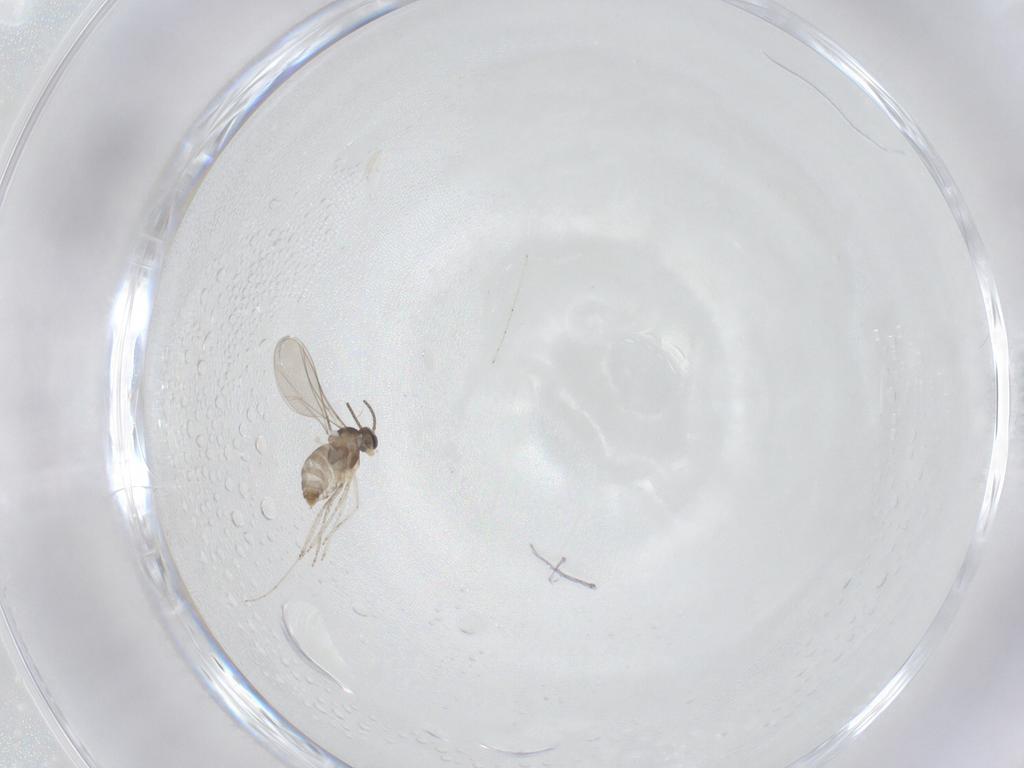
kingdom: Animalia
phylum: Arthropoda
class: Insecta
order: Diptera
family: Cecidomyiidae
